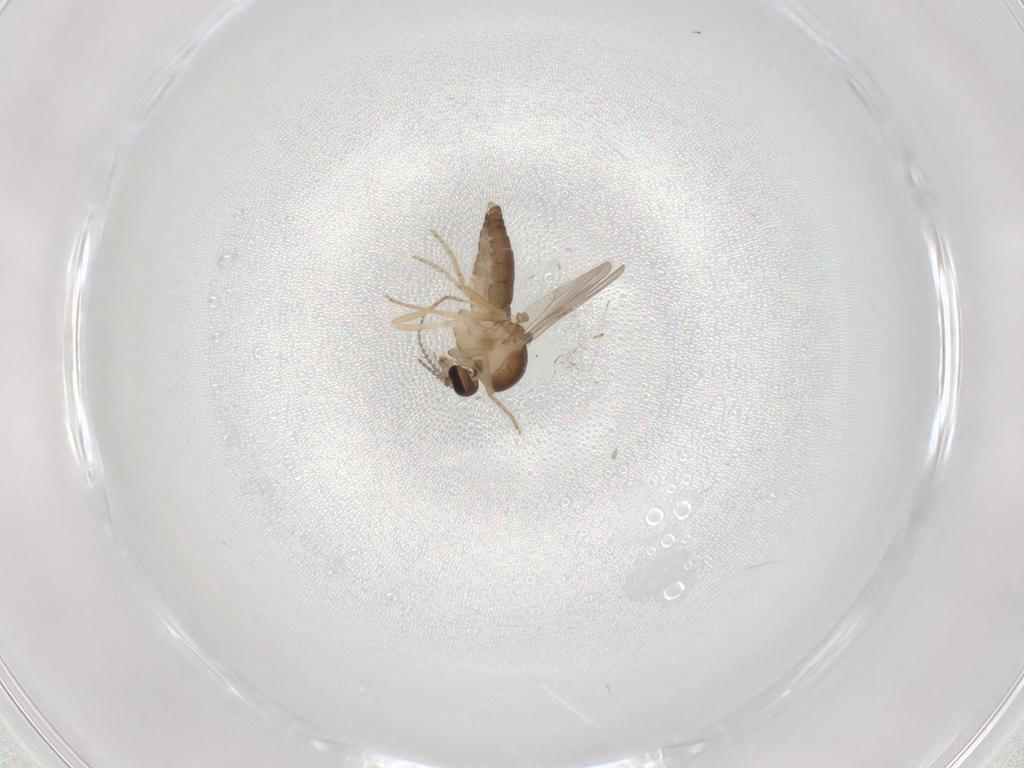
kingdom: Animalia
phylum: Arthropoda
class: Insecta
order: Diptera
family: Ceratopogonidae
